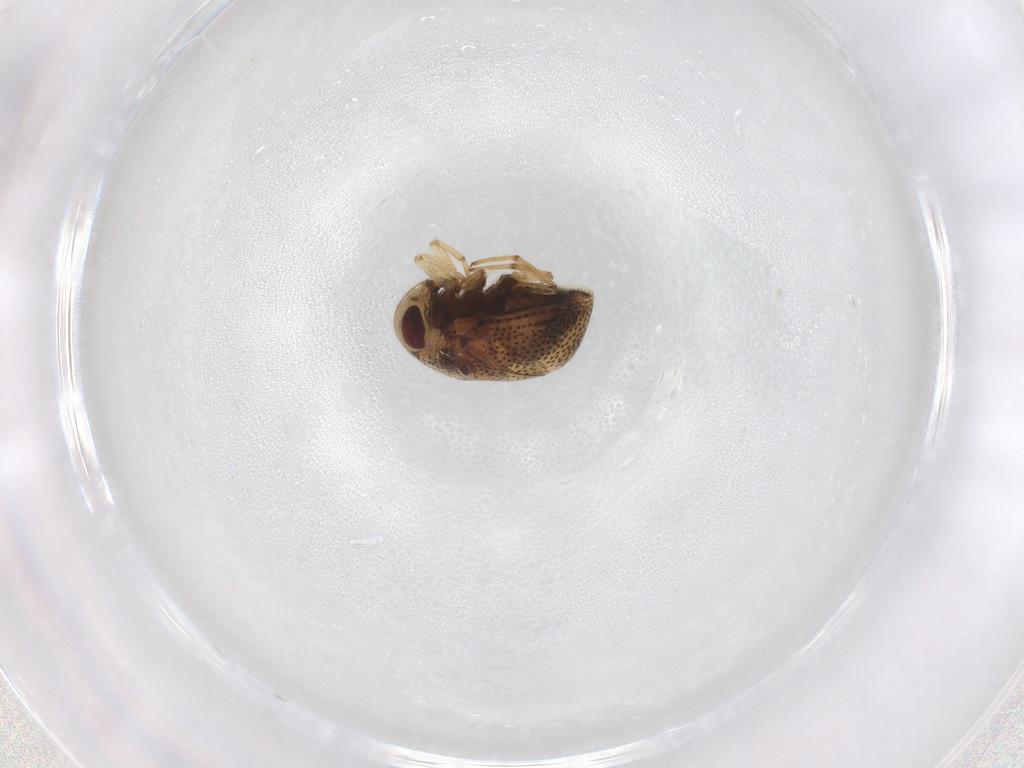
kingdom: Animalia
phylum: Arthropoda
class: Insecta
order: Hemiptera
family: Pleidae
